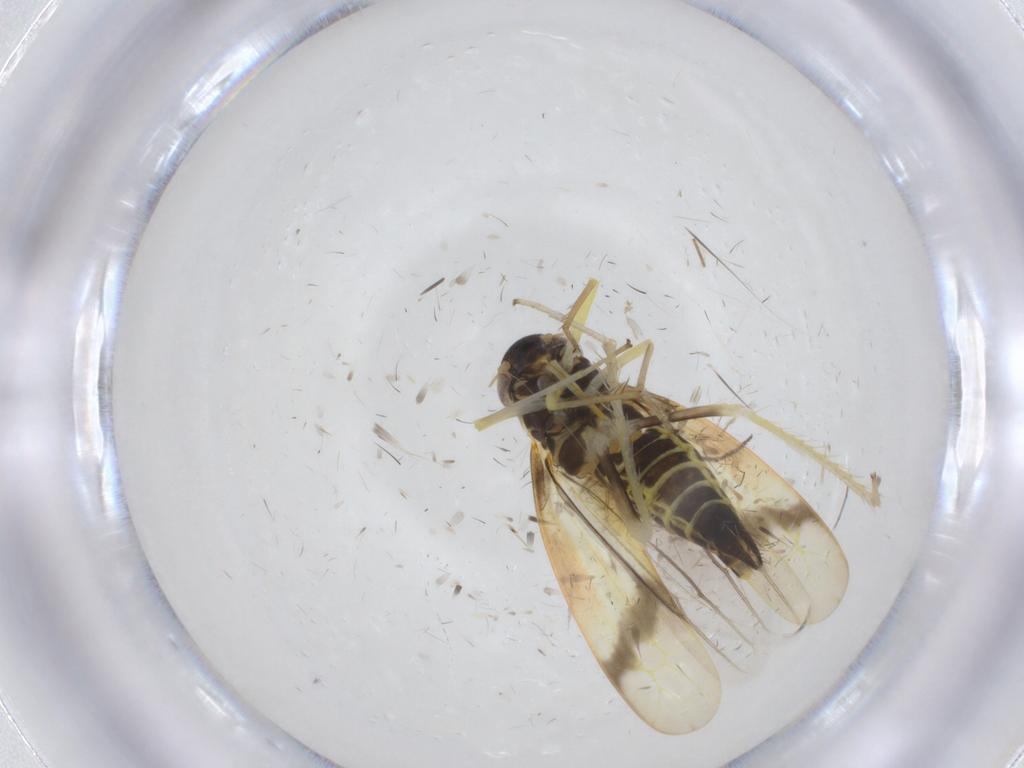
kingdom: Animalia
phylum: Arthropoda
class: Insecta
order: Hemiptera
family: Cicadellidae
